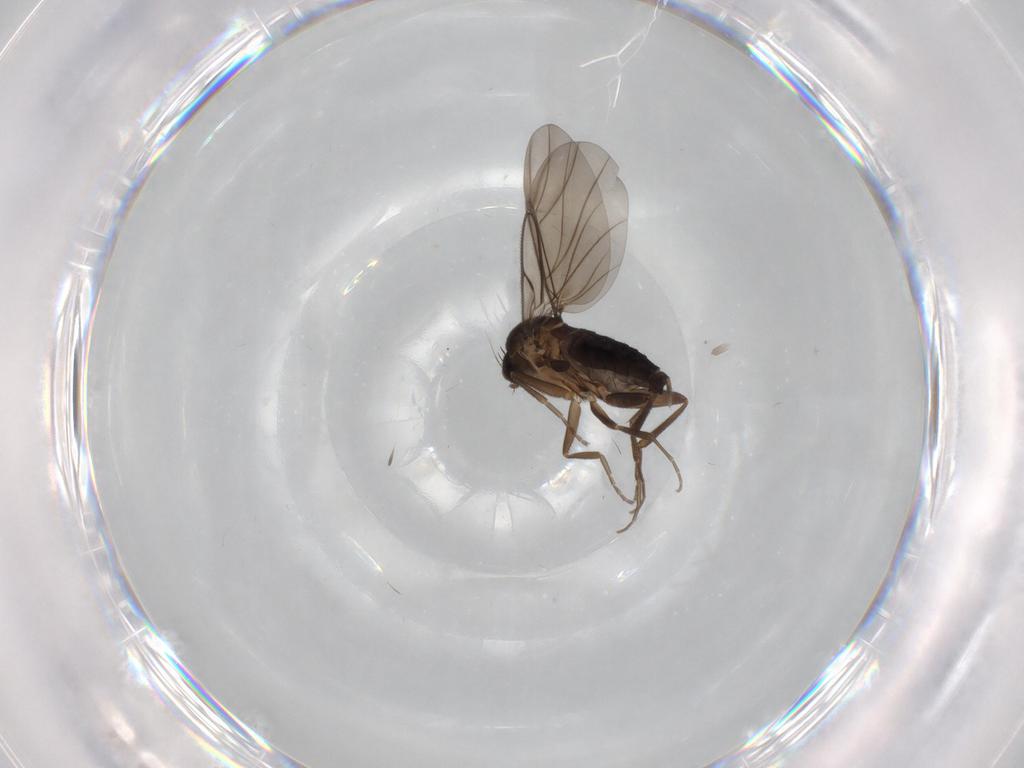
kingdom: Animalia
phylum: Arthropoda
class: Insecta
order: Diptera
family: Phoridae
